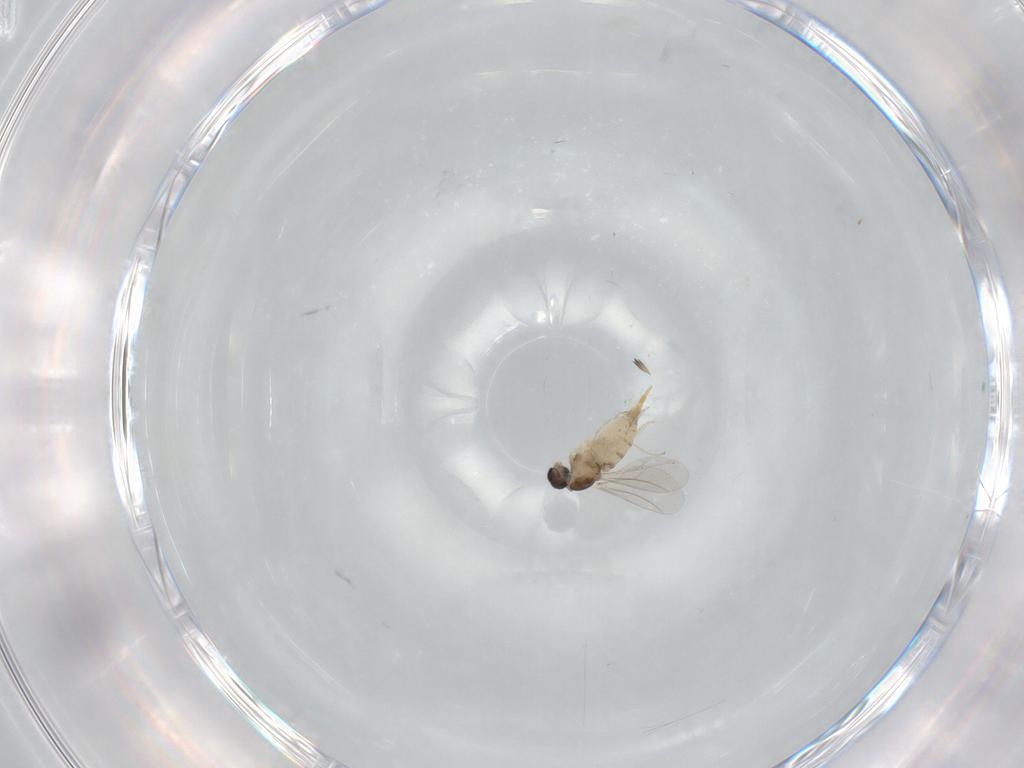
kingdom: Animalia
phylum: Arthropoda
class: Insecta
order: Diptera
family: Cecidomyiidae
